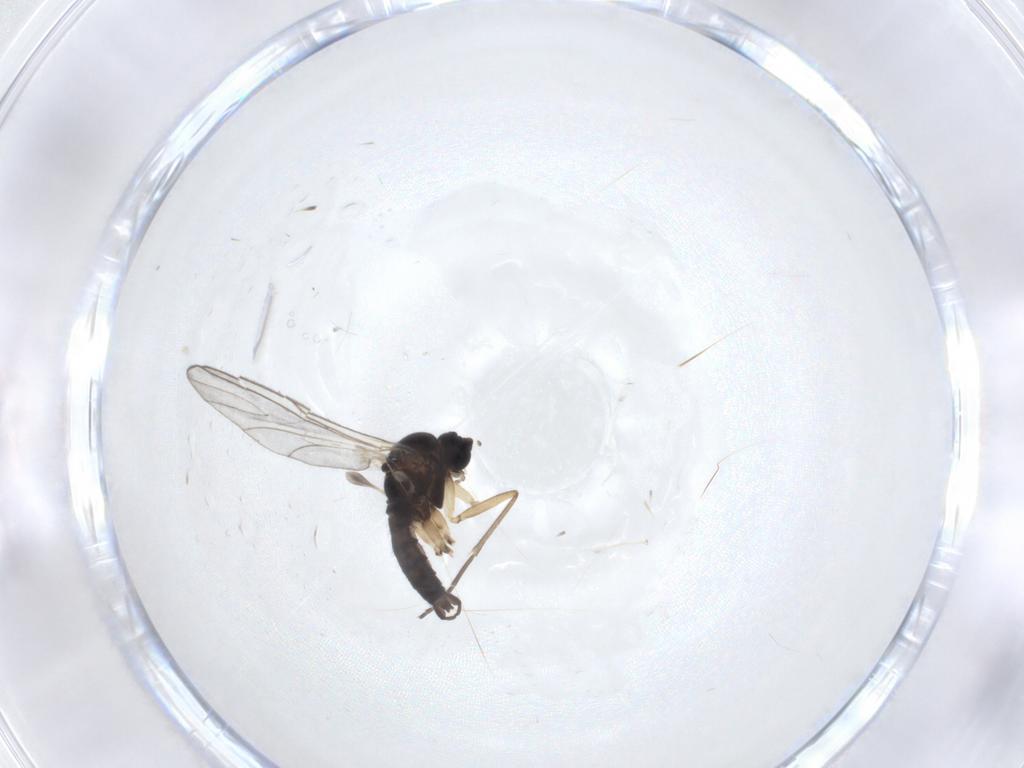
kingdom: Animalia
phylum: Arthropoda
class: Insecta
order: Diptera
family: Sciaridae
